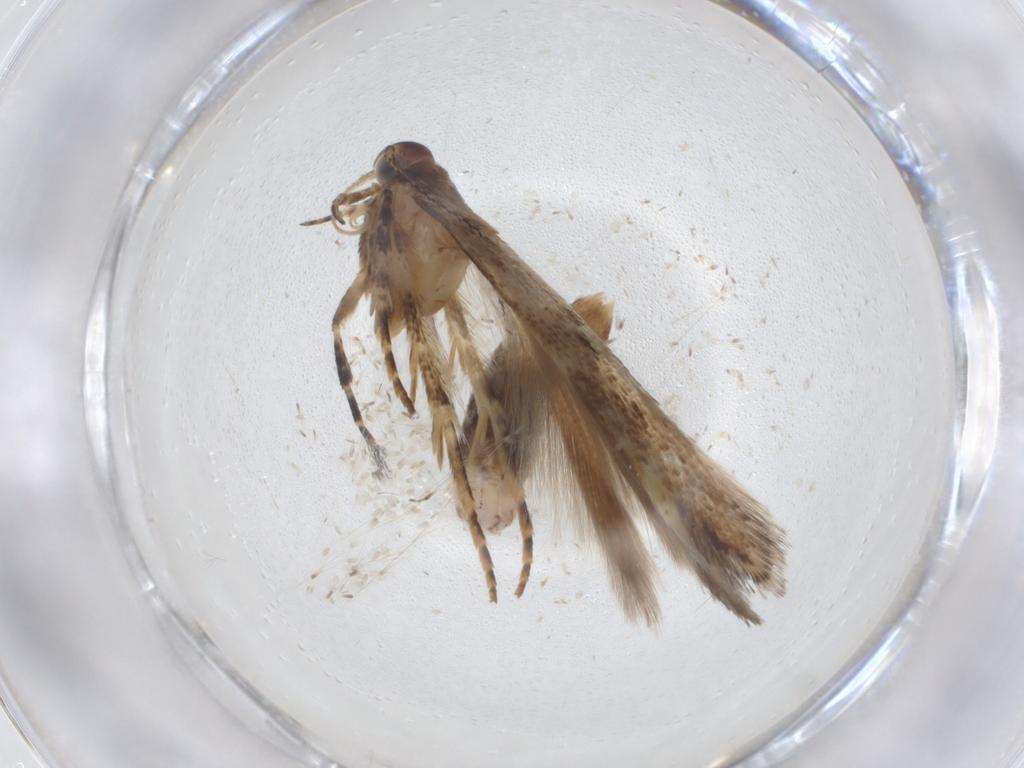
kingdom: Animalia
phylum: Arthropoda
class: Insecta
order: Lepidoptera
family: Gelechiidae
